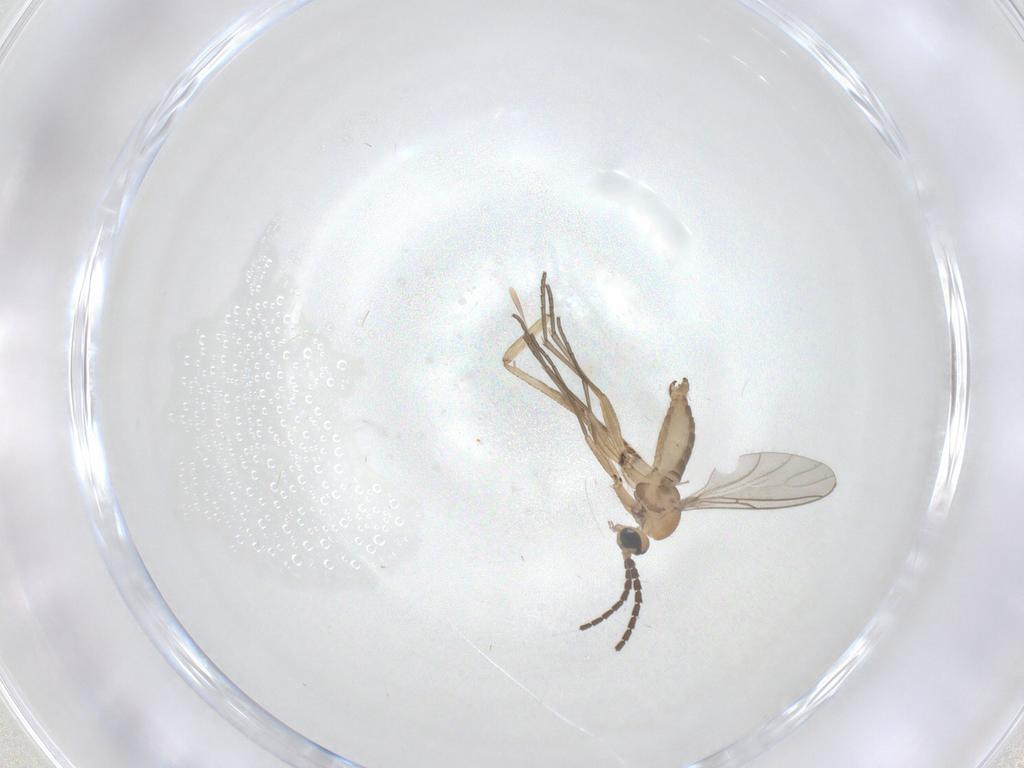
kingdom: Animalia
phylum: Arthropoda
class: Insecta
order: Diptera
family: Sciaridae
